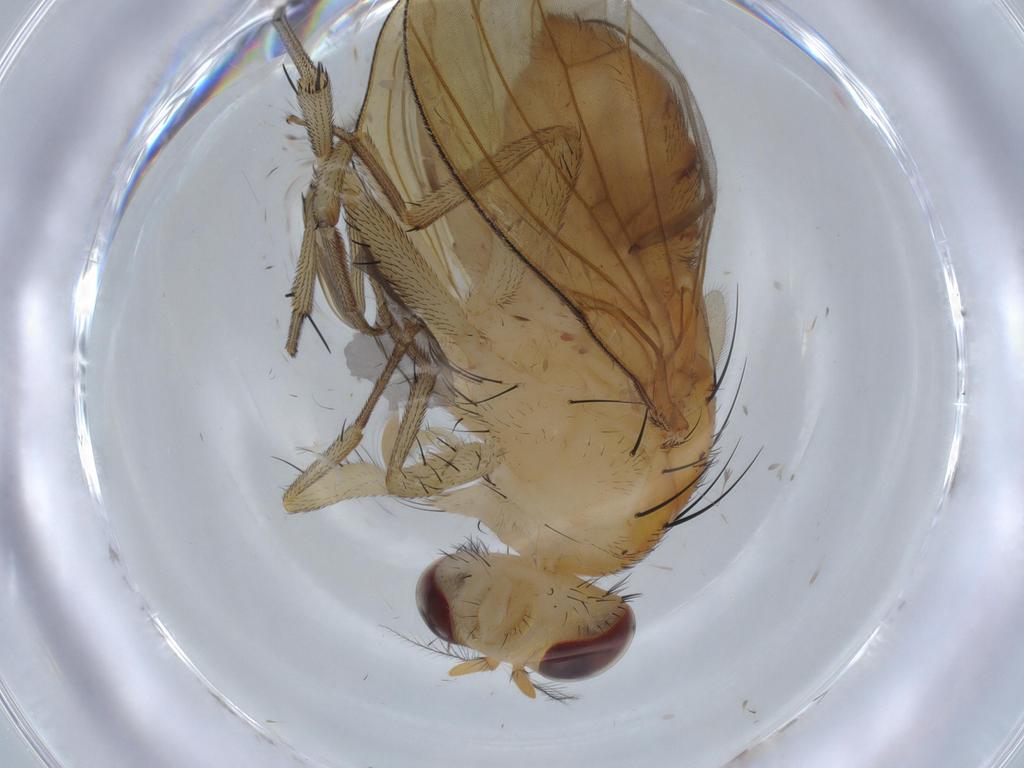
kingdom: Animalia
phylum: Arthropoda
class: Insecta
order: Diptera
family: Sciaridae
